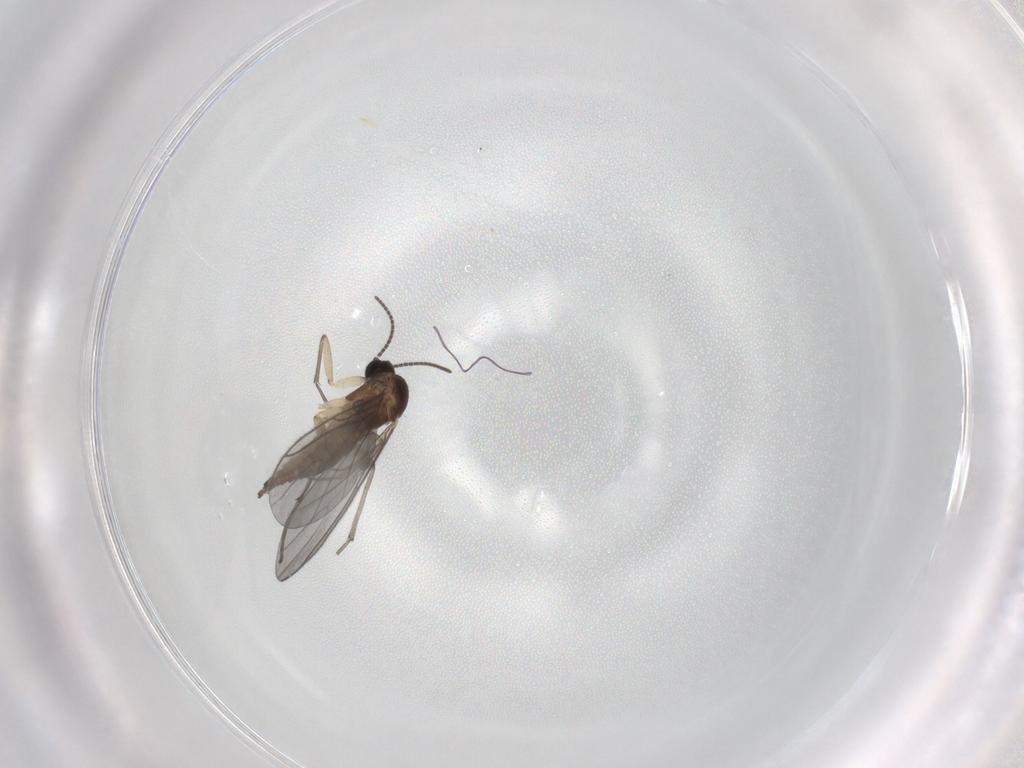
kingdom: Animalia
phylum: Arthropoda
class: Insecta
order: Diptera
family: Sciaridae
